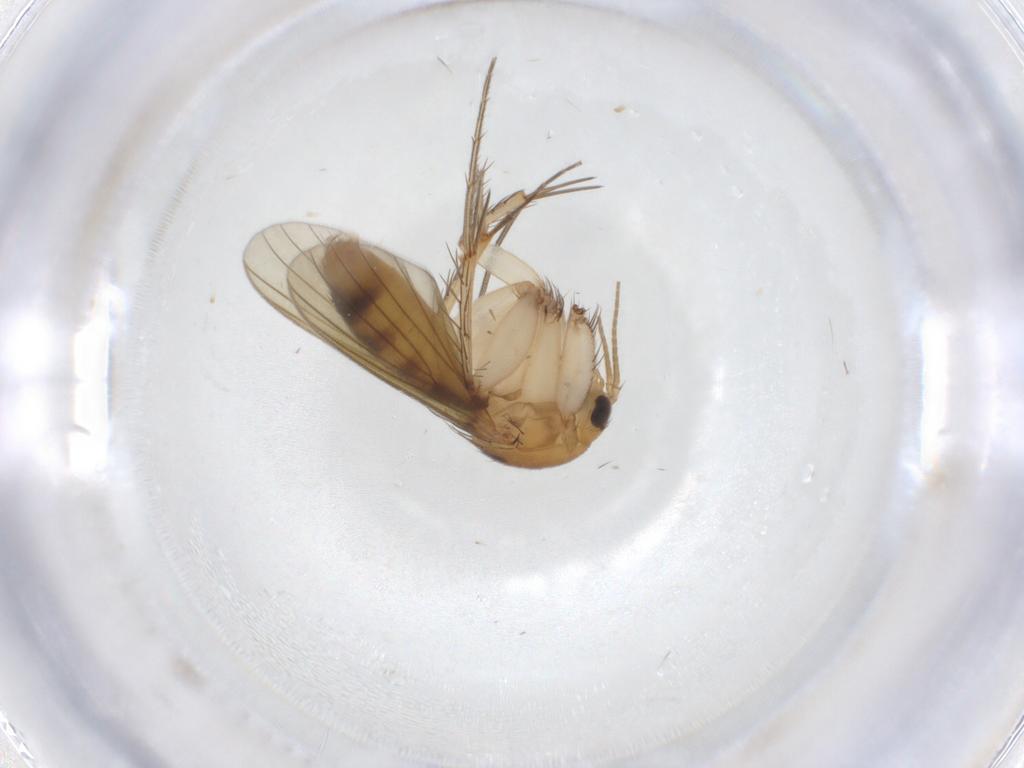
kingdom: Animalia
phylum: Arthropoda
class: Insecta
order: Diptera
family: Mycetophilidae
